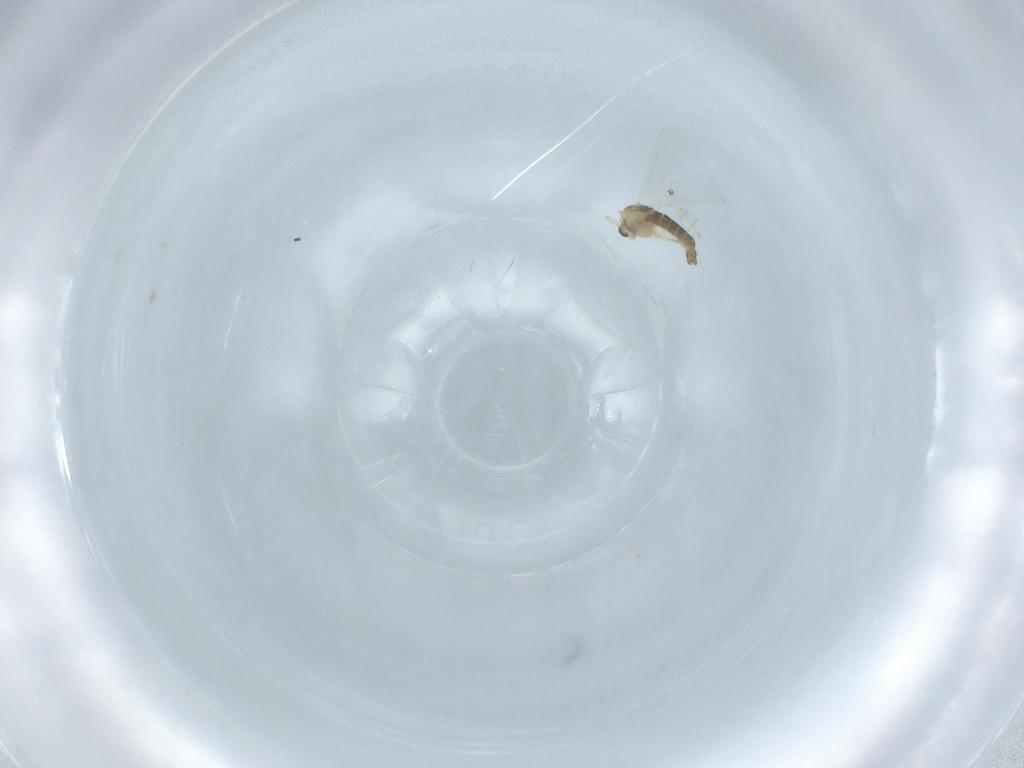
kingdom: Animalia
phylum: Arthropoda
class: Insecta
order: Diptera
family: Chironomidae
